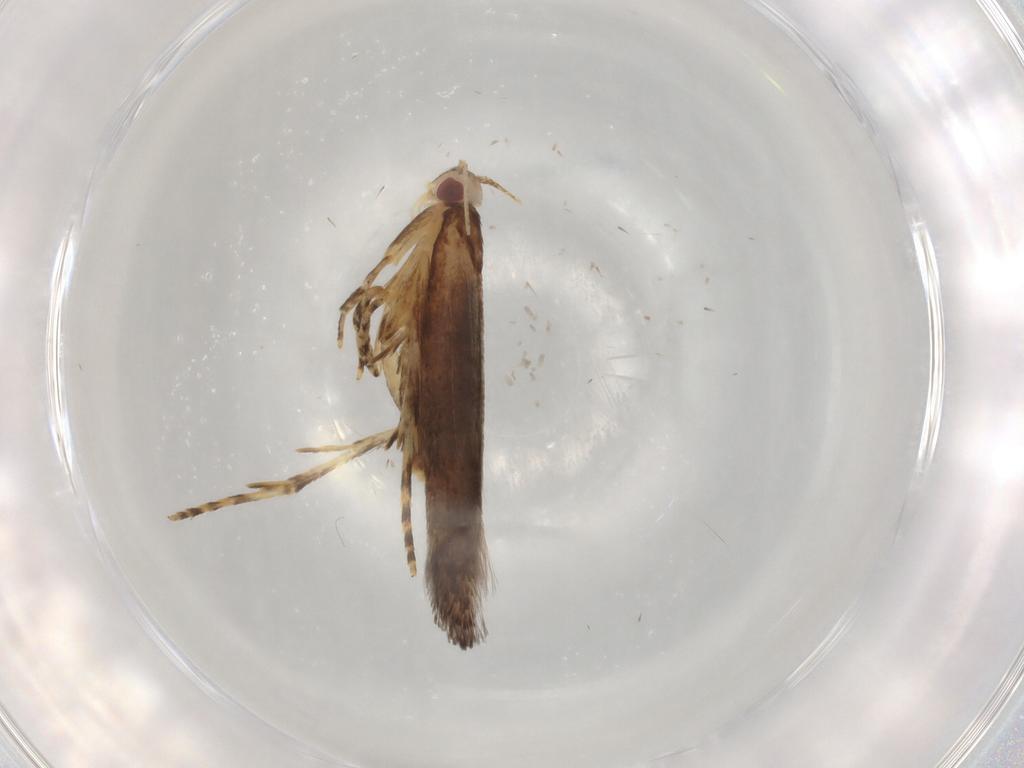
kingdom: Animalia
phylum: Arthropoda
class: Insecta
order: Lepidoptera
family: Cosmopterigidae
